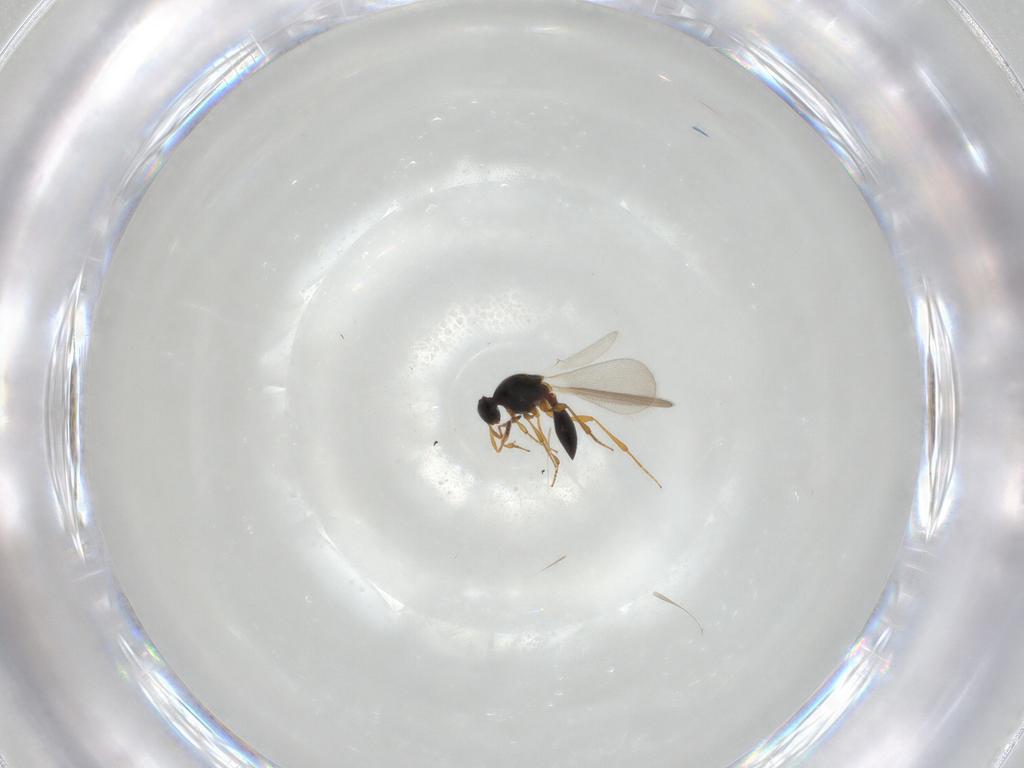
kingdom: Animalia
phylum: Arthropoda
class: Insecta
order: Hymenoptera
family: Platygastridae
